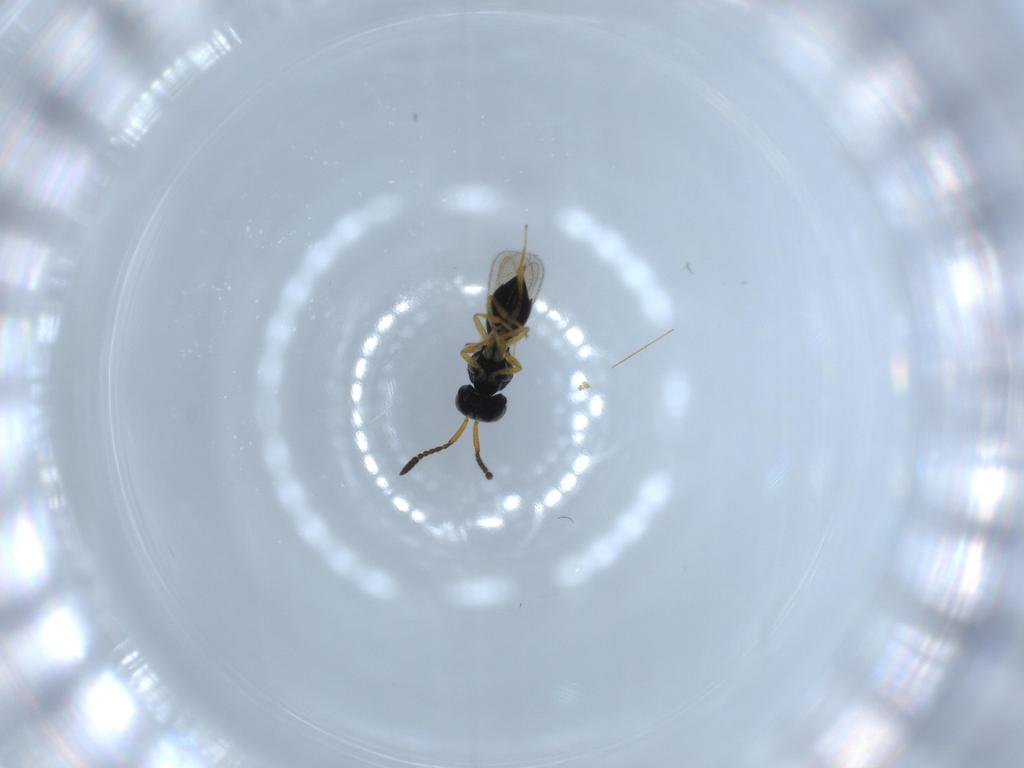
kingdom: Animalia
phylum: Arthropoda
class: Insecta
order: Hymenoptera
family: Scelionidae
